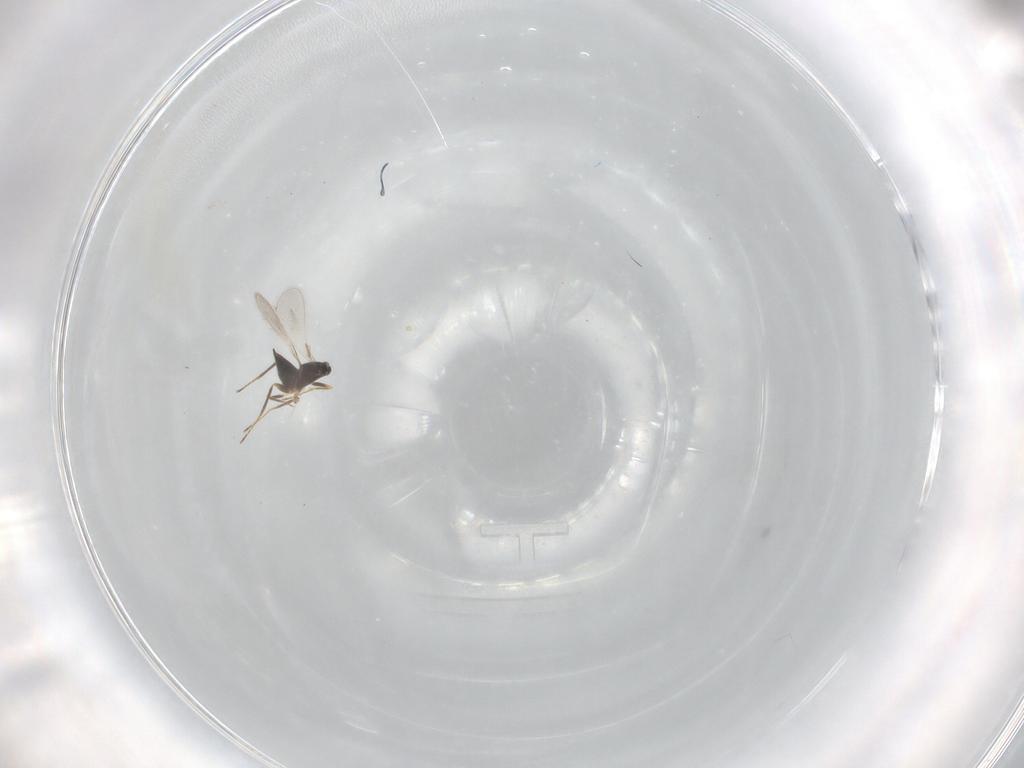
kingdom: Animalia
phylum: Arthropoda
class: Insecta
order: Hymenoptera
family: Mymaridae
